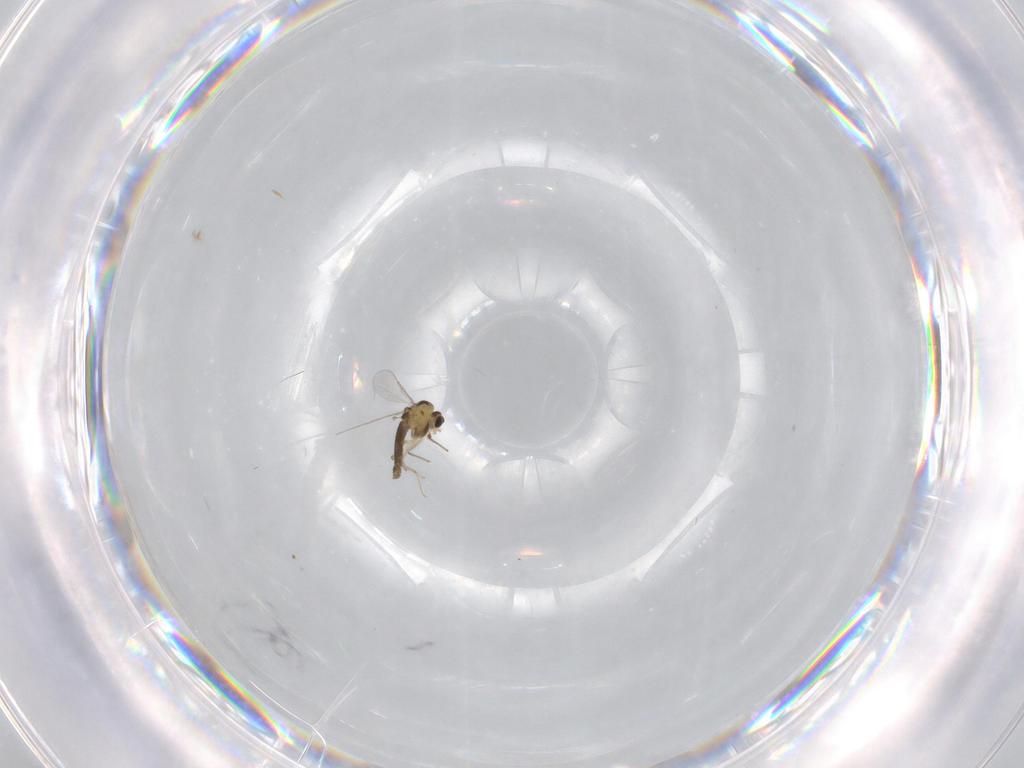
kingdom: Animalia
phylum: Arthropoda
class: Insecta
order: Diptera
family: Chironomidae
